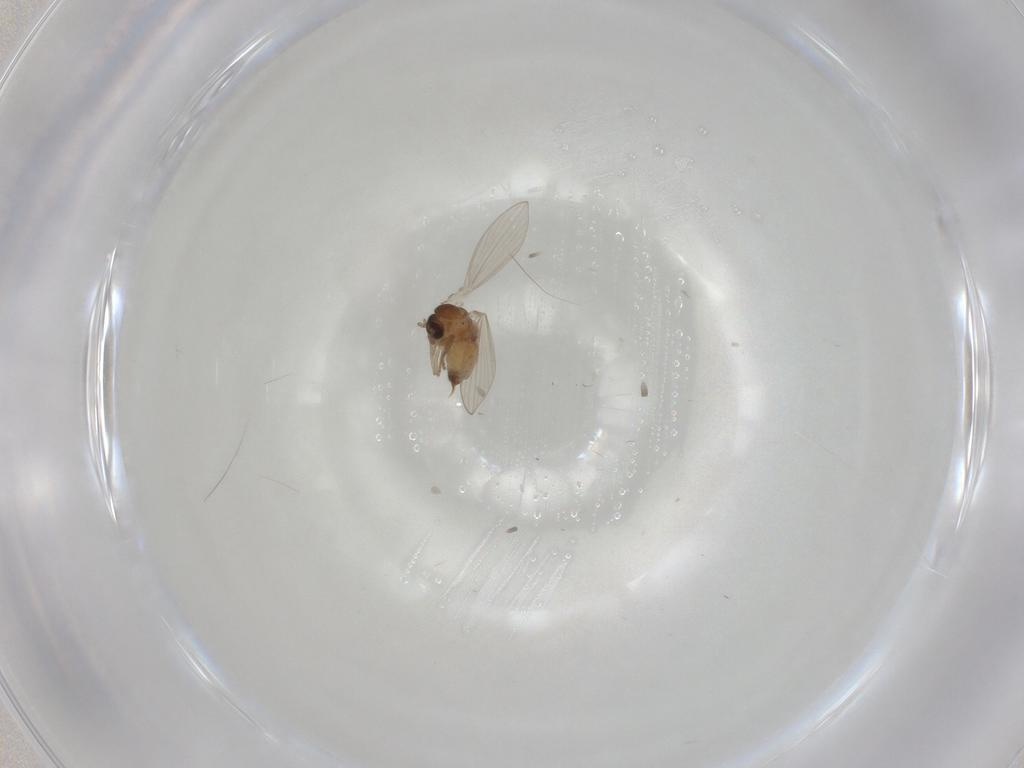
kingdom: Animalia
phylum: Arthropoda
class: Insecta
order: Diptera
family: Psychodidae
